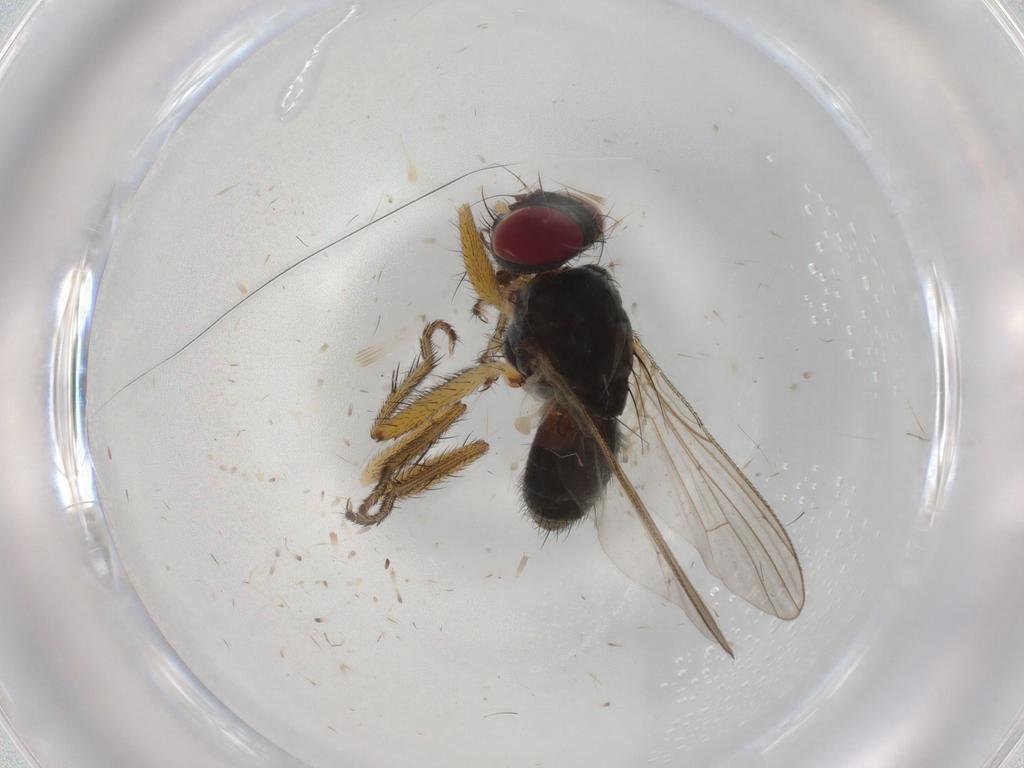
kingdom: Animalia
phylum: Arthropoda
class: Insecta
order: Diptera
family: Muscidae
